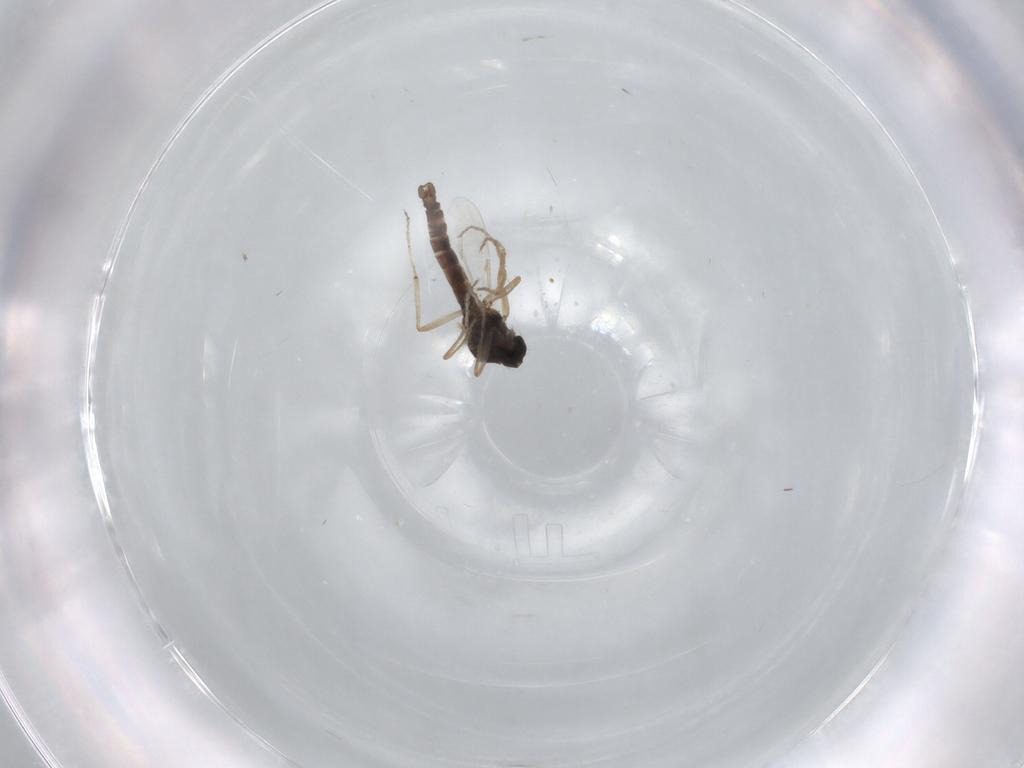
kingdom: Animalia
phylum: Arthropoda
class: Insecta
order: Diptera
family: Ceratopogonidae
